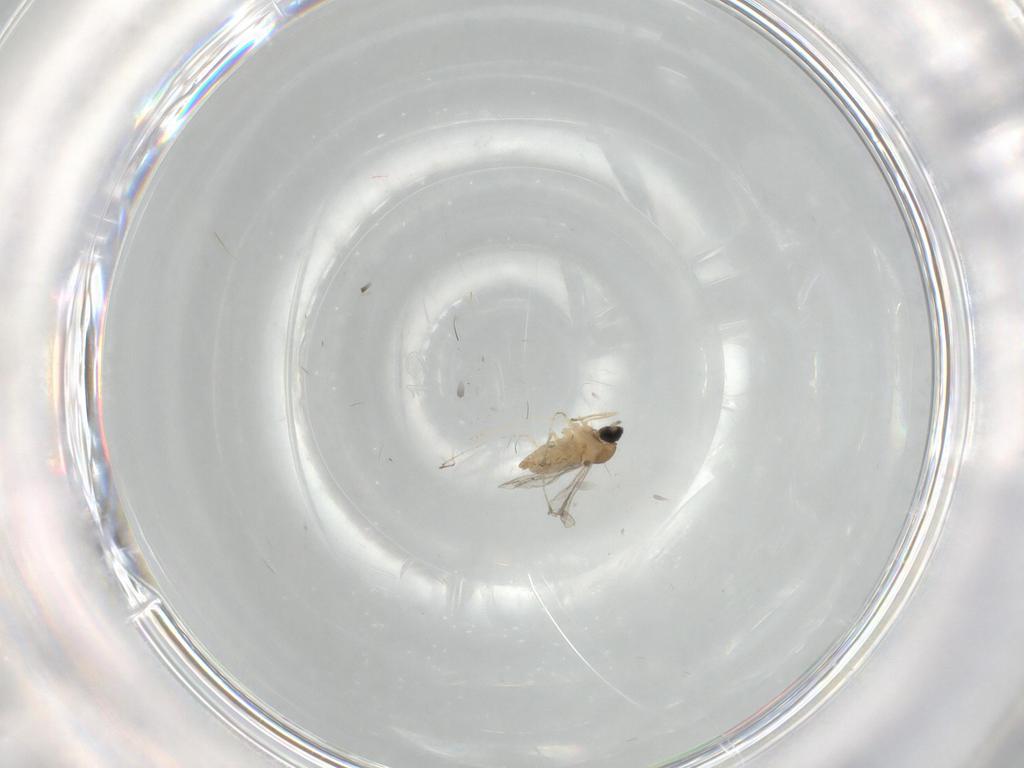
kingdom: Animalia
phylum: Arthropoda
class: Insecta
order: Diptera
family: Cecidomyiidae
